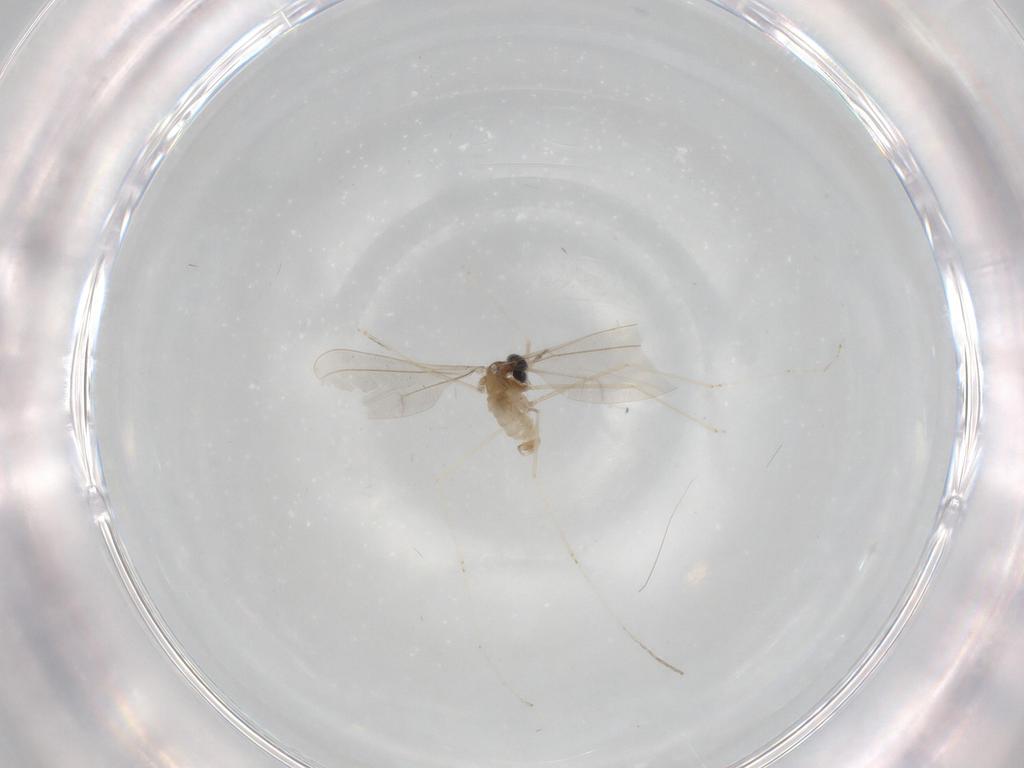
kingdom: Animalia
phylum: Arthropoda
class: Insecta
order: Diptera
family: Cecidomyiidae
